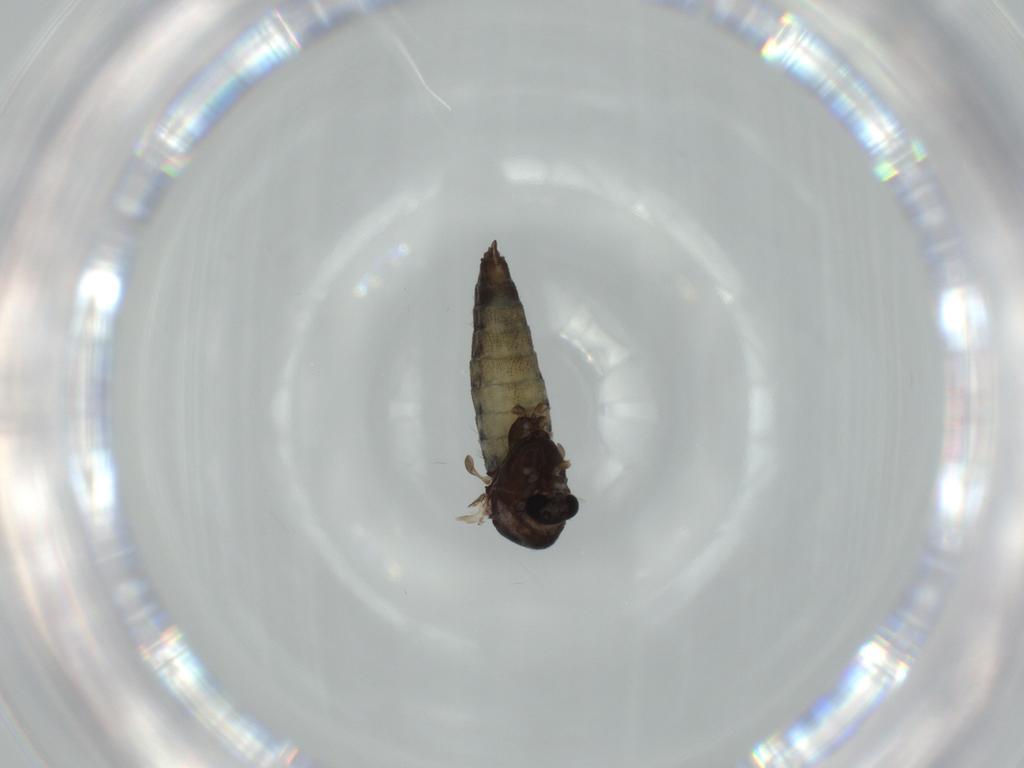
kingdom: Animalia
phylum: Arthropoda
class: Insecta
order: Diptera
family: Chironomidae
